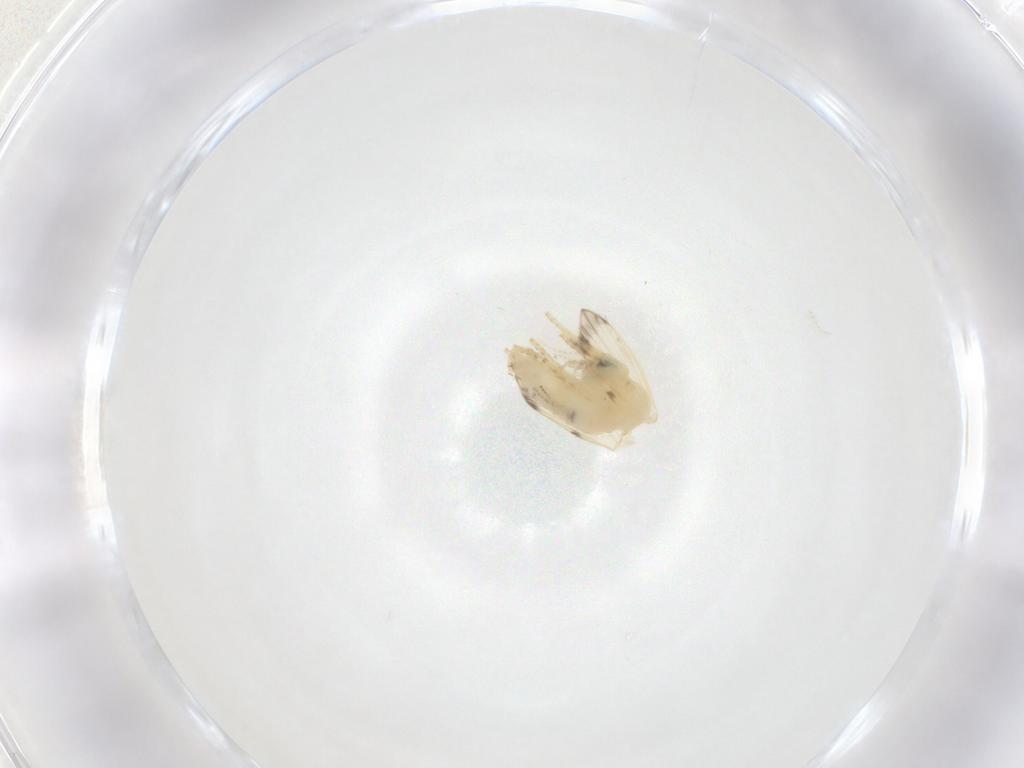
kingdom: Animalia
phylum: Arthropoda
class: Insecta
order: Diptera
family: Psychodidae
